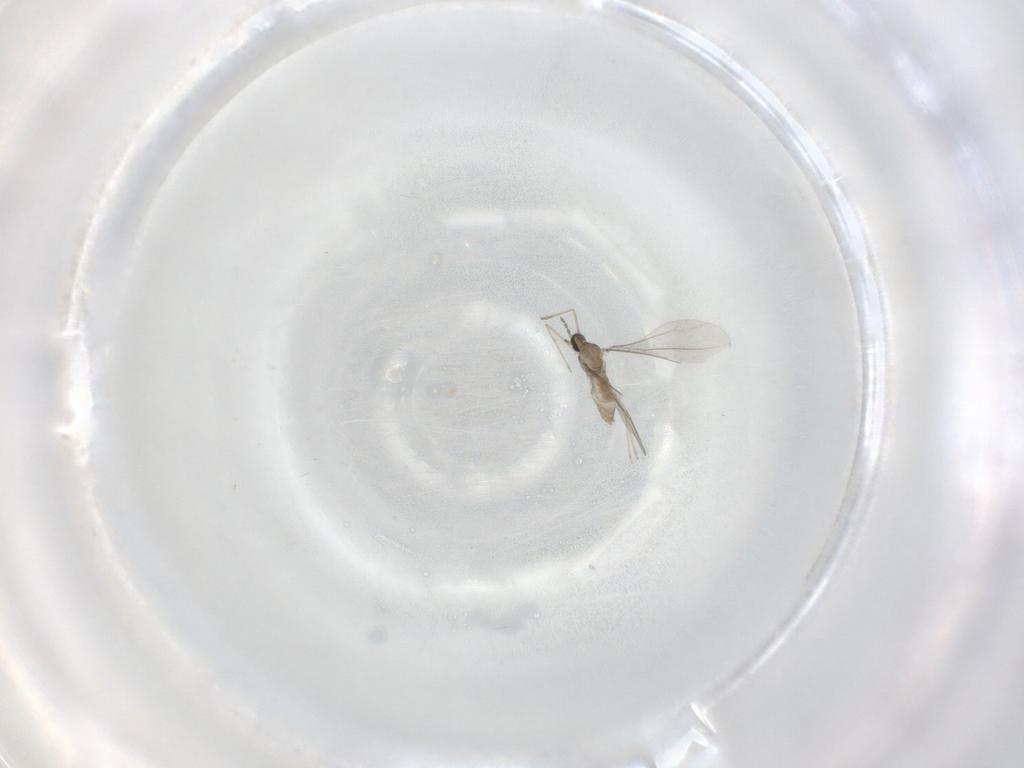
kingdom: Animalia
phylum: Arthropoda
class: Insecta
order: Diptera
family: Cecidomyiidae
